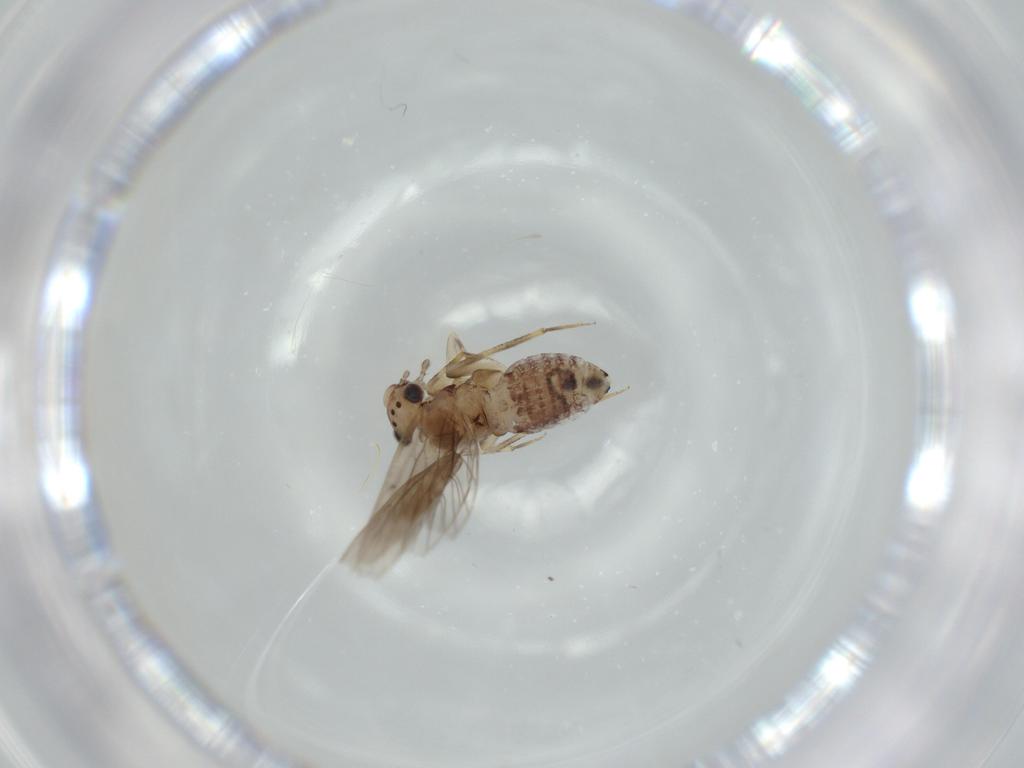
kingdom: Animalia
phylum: Arthropoda
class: Insecta
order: Psocodea
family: Lepidopsocidae
